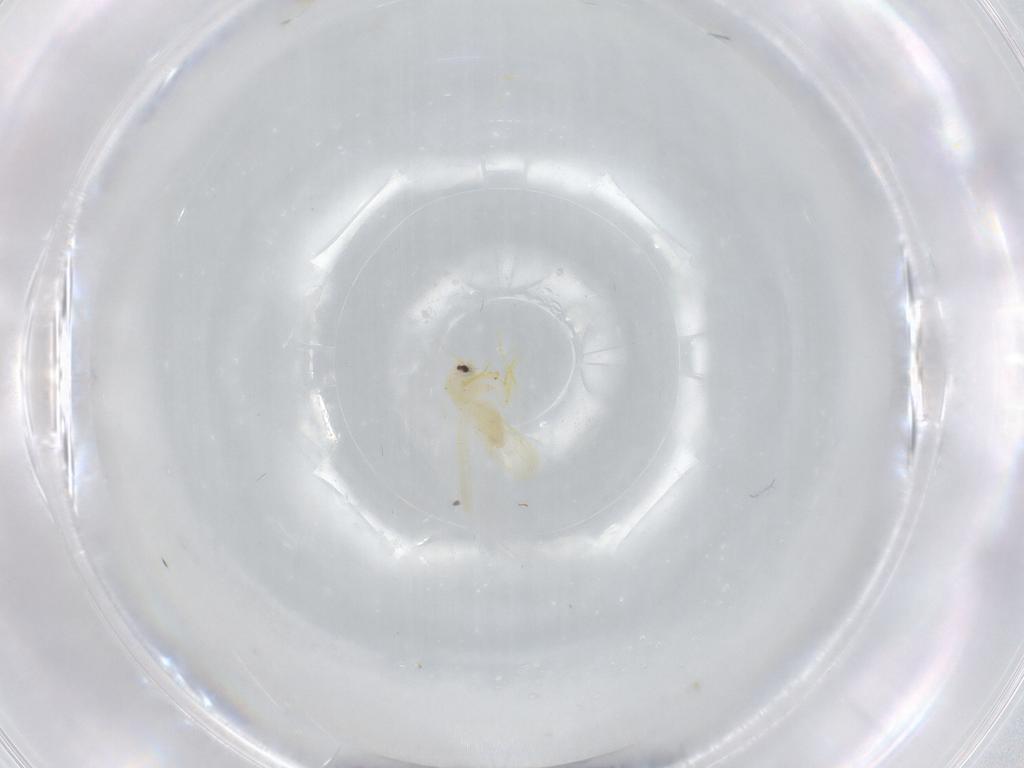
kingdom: Animalia
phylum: Arthropoda
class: Insecta
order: Hemiptera
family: Aleyrodidae
